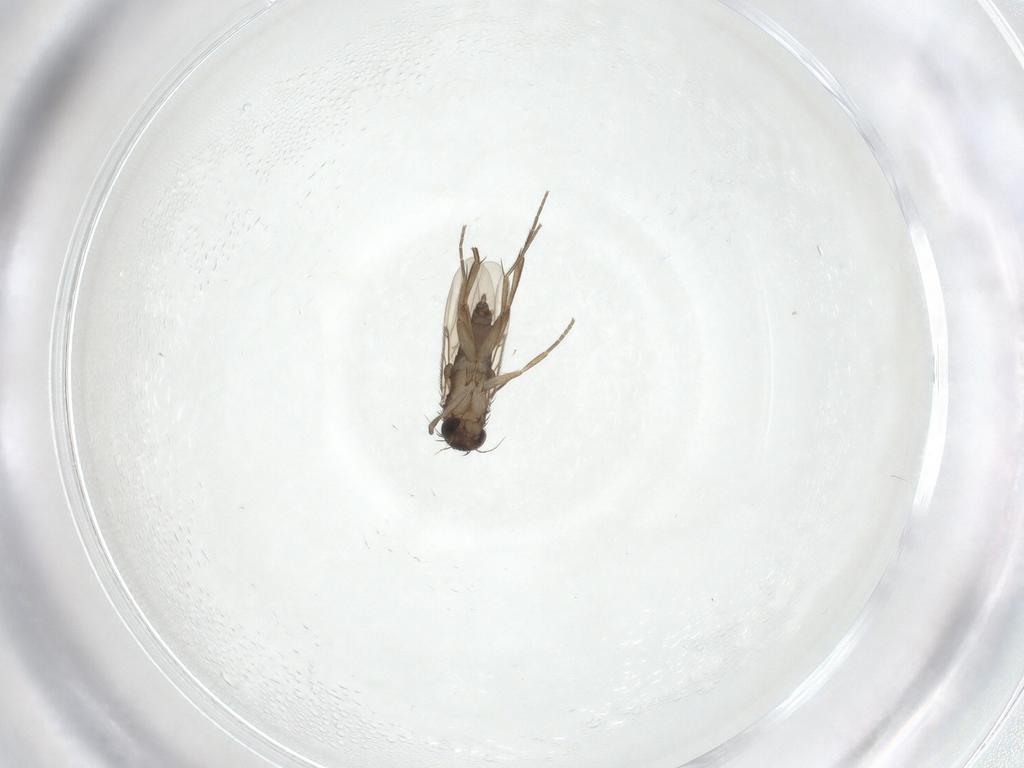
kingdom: Animalia
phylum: Arthropoda
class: Insecta
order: Diptera
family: Phoridae
